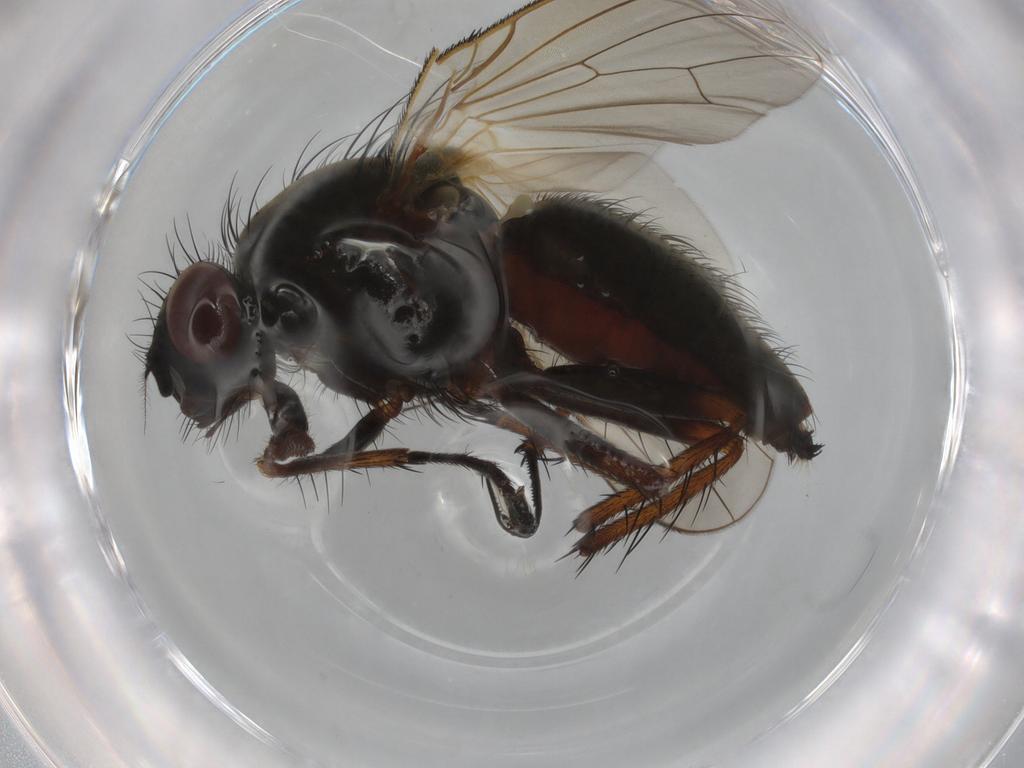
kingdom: Animalia
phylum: Arthropoda
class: Insecta
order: Diptera
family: Anthomyiidae
